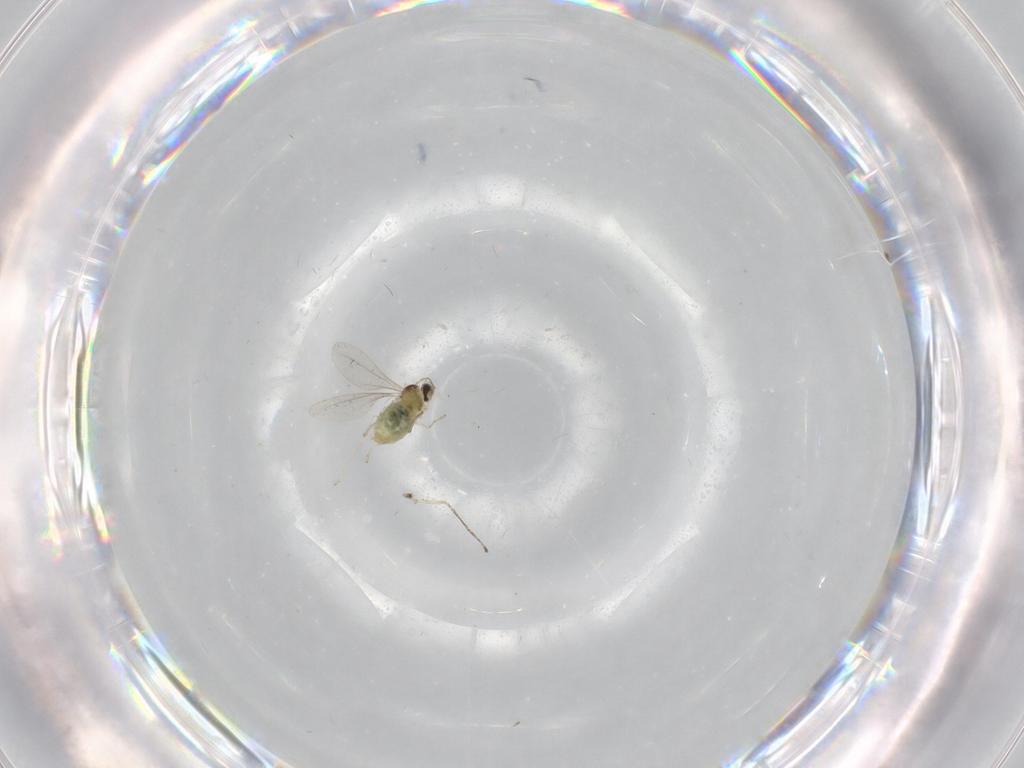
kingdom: Animalia
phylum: Arthropoda
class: Insecta
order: Diptera
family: Cecidomyiidae
